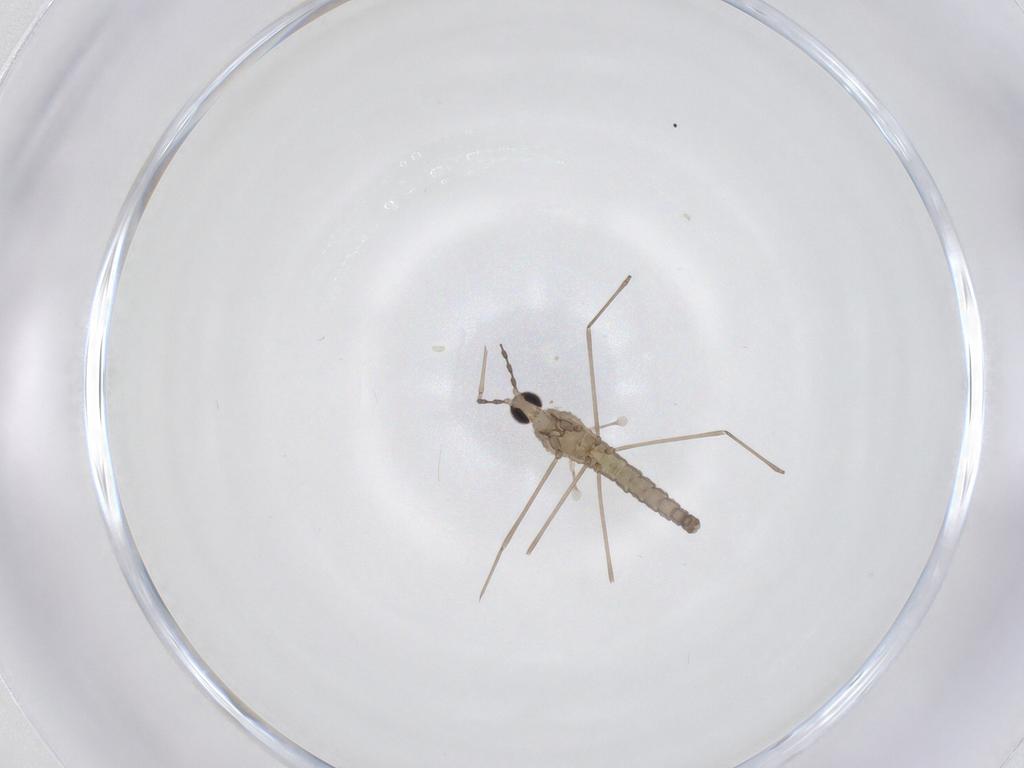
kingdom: Animalia
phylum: Arthropoda
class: Insecta
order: Diptera
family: Cecidomyiidae
